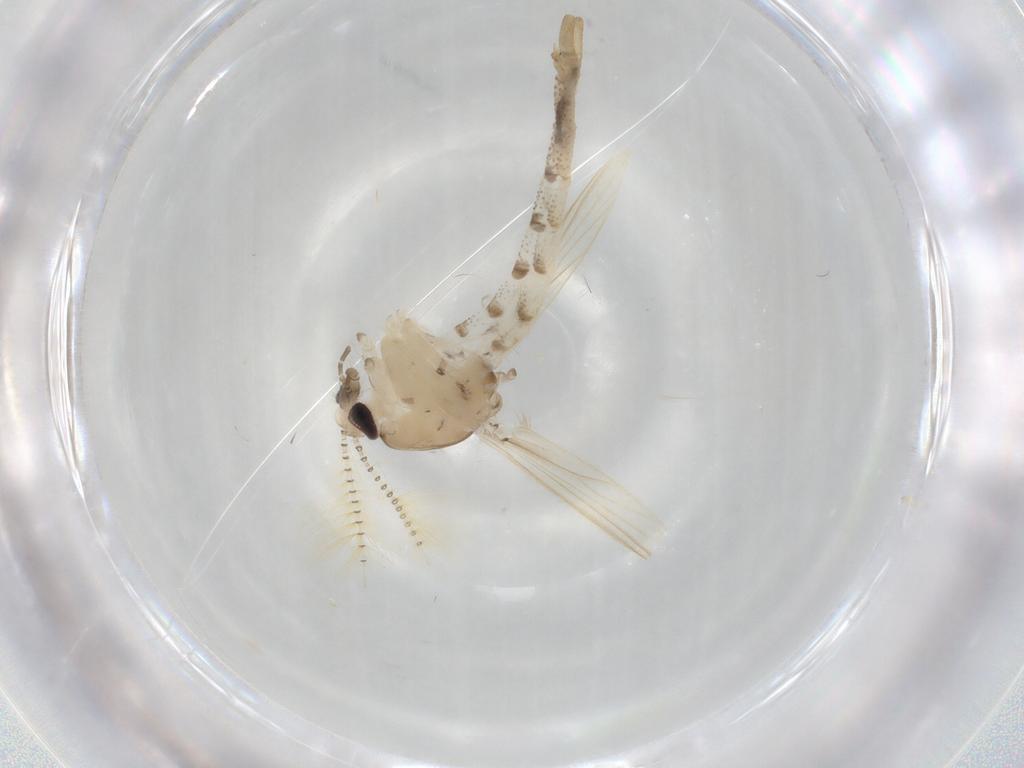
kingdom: Animalia
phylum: Arthropoda
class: Insecta
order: Diptera
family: Chaoboridae
